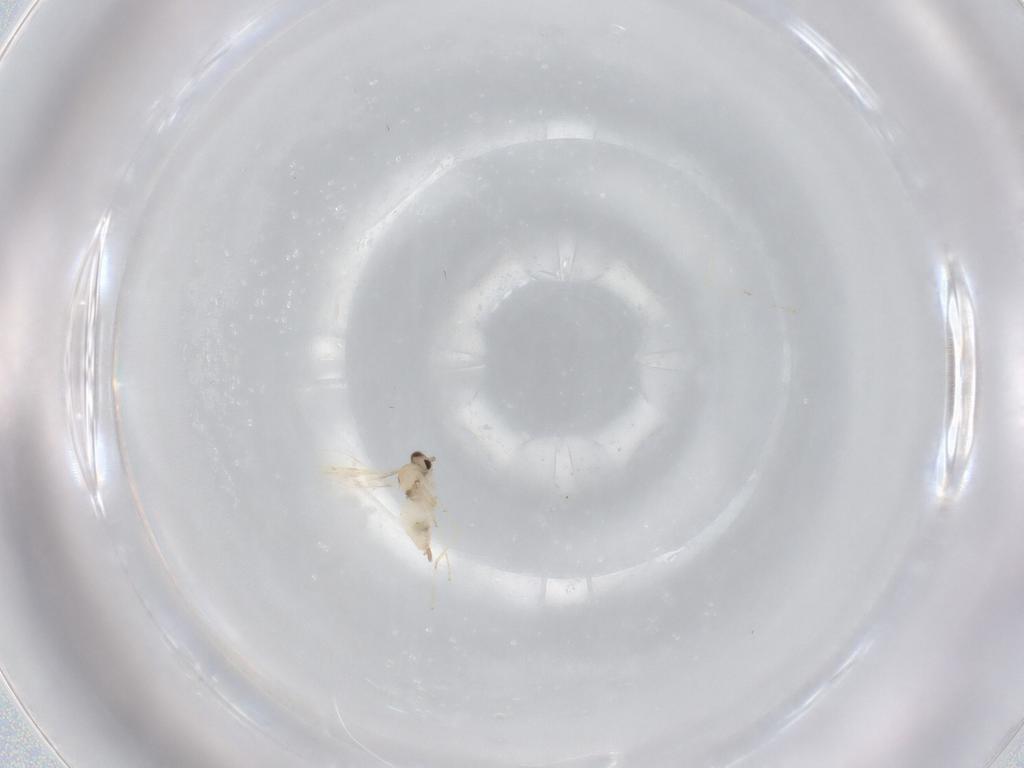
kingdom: Animalia
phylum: Arthropoda
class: Insecta
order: Diptera
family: Cecidomyiidae
